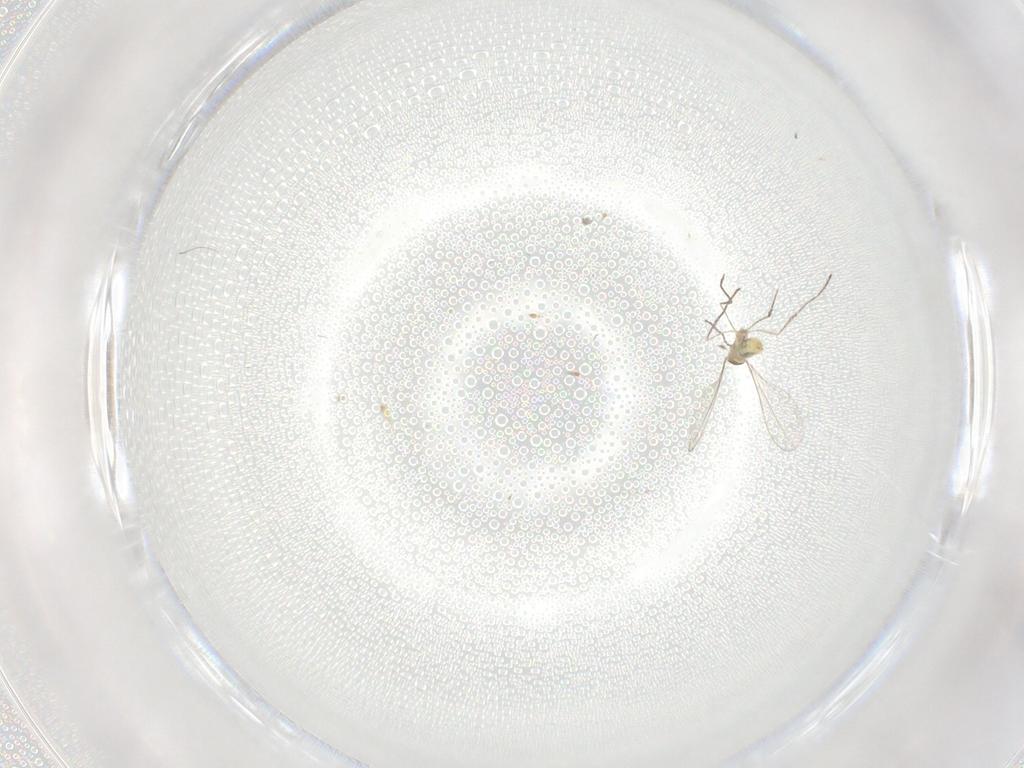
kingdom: Animalia
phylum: Arthropoda
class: Insecta
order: Diptera
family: Cecidomyiidae
